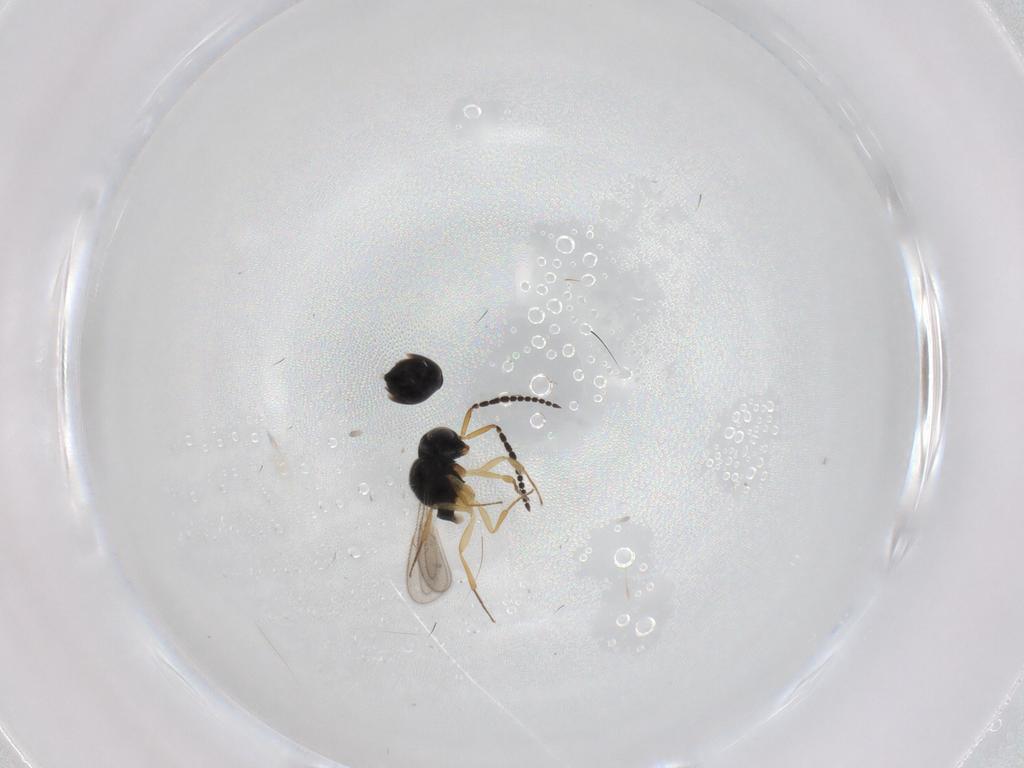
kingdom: Animalia
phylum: Arthropoda
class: Insecta
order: Hymenoptera
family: Scelionidae
